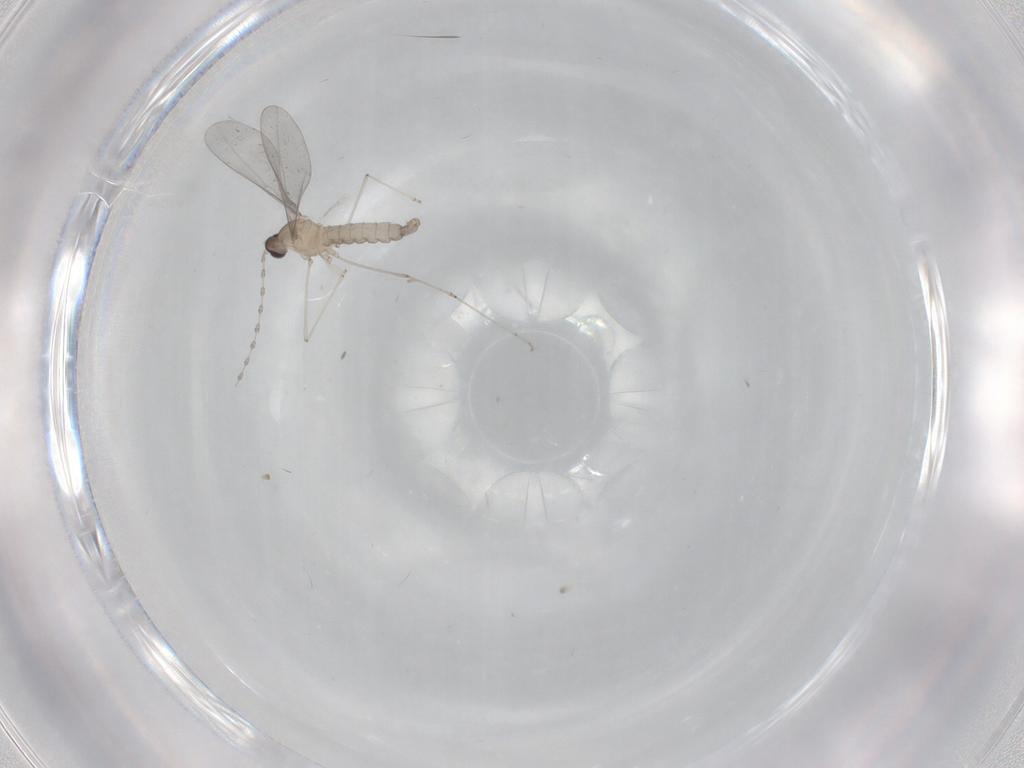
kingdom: Animalia
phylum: Arthropoda
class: Insecta
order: Diptera
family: Cecidomyiidae
